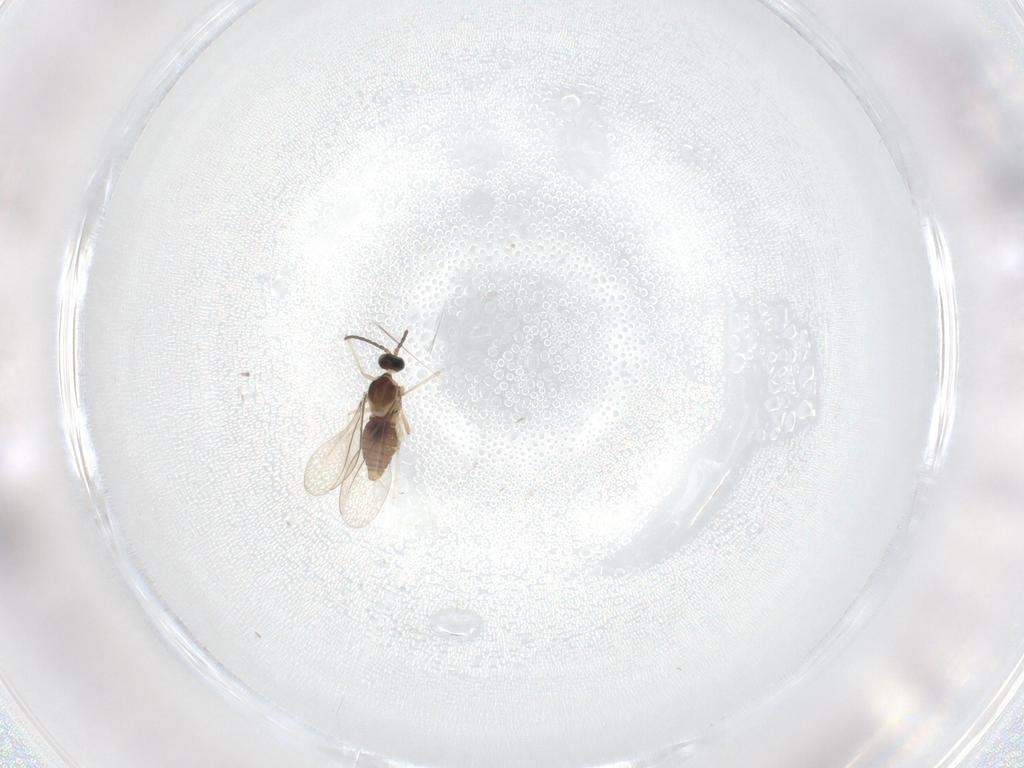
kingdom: Animalia
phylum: Arthropoda
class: Insecta
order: Diptera
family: Cecidomyiidae
